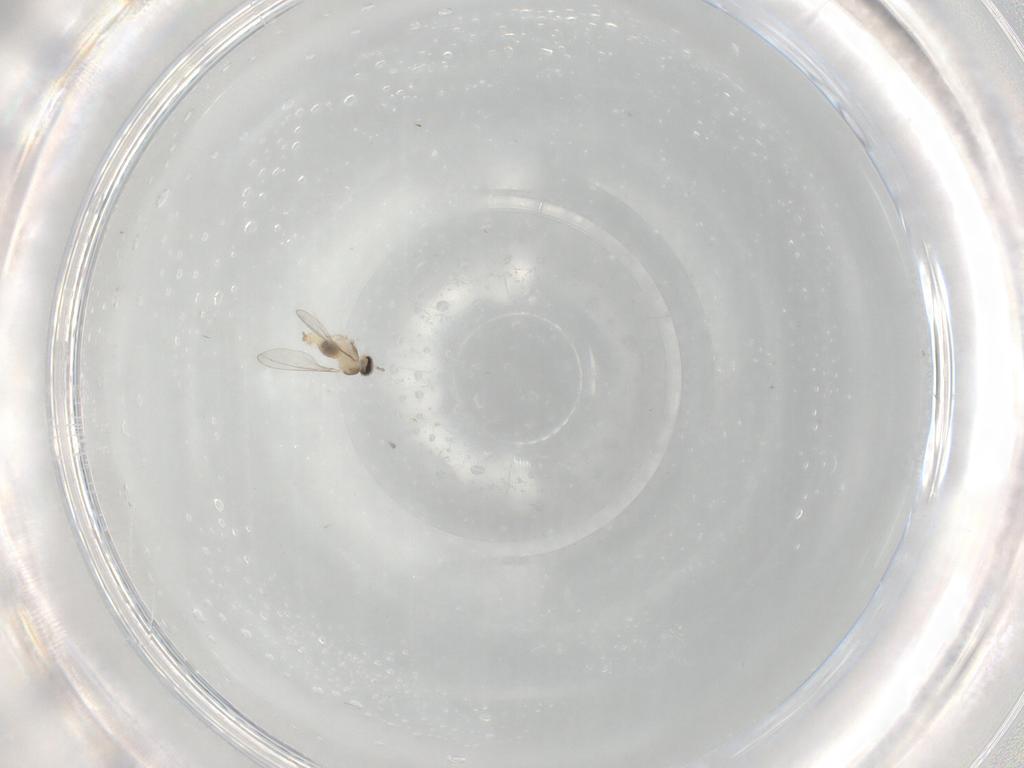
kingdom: Animalia
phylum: Arthropoda
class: Insecta
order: Diptera
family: Cecidomyiidae
